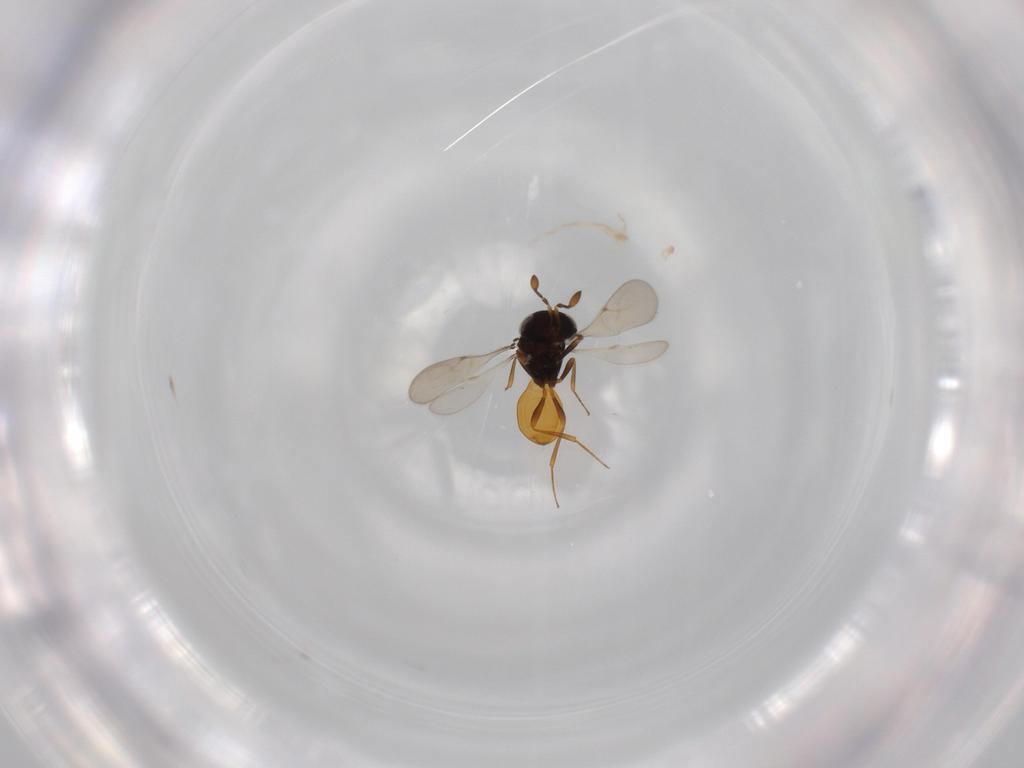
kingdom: Animalia
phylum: Arthropoda
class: Insecta
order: Hymenoptera
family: Scelionidae
